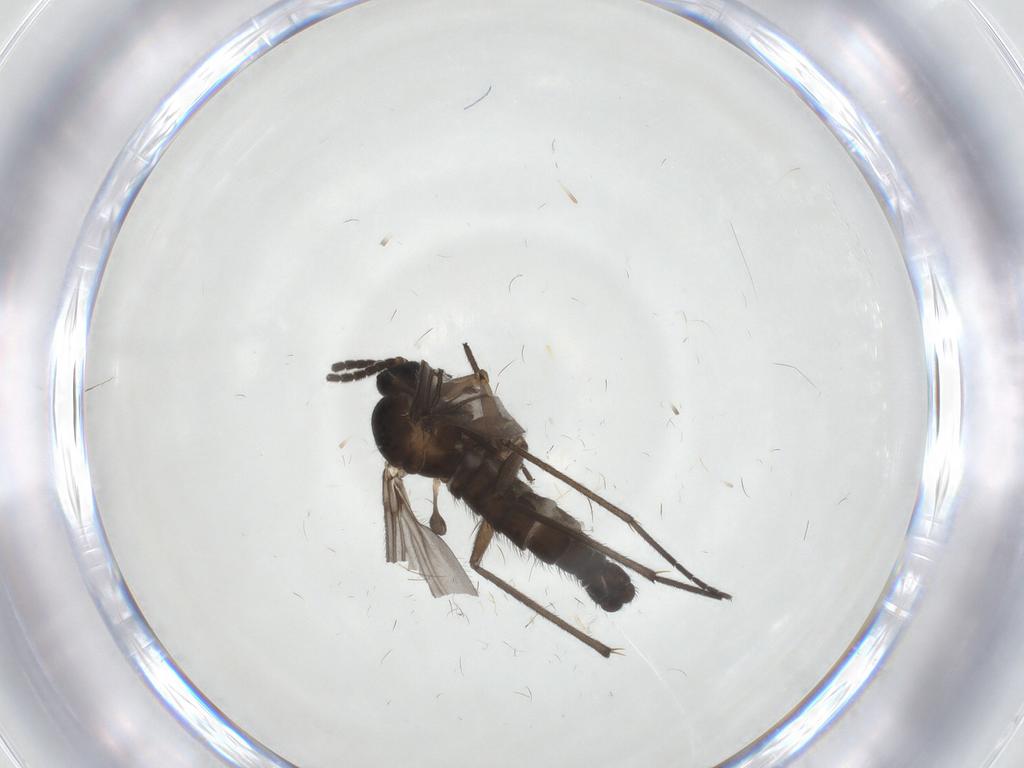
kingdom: Animalia
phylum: Arthropoda
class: Insecta
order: Diptera
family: Sciaridae
